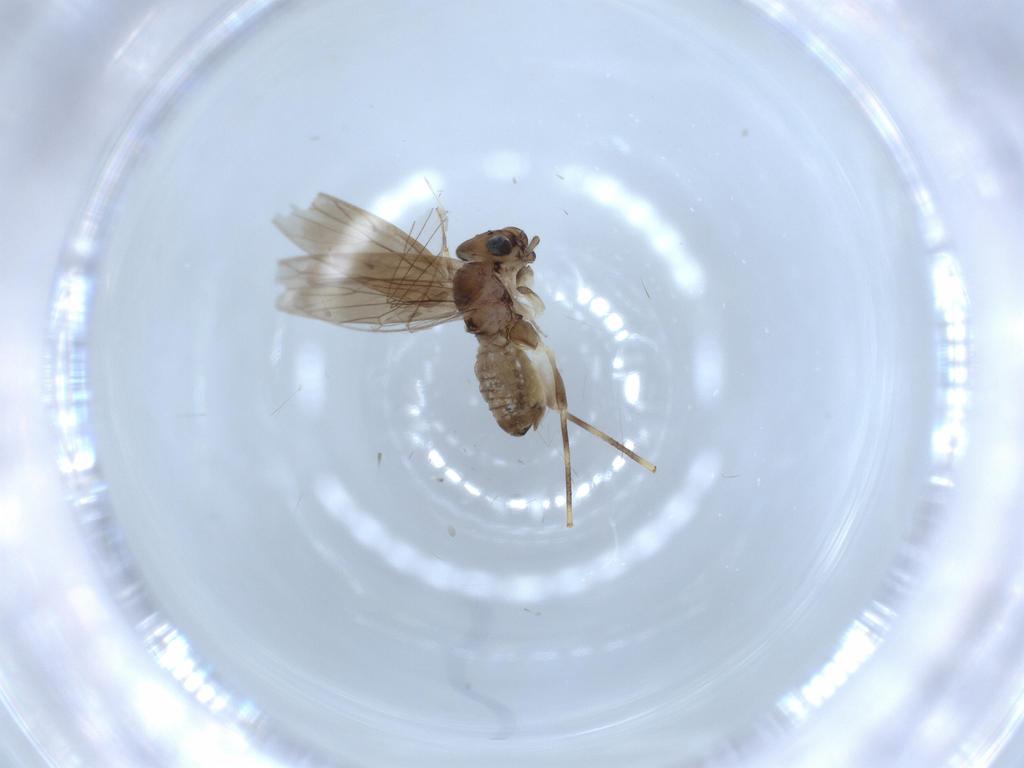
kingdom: Animalia
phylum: Arthropoda
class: Insecta
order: Psocodea
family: Lepidopsocidae
